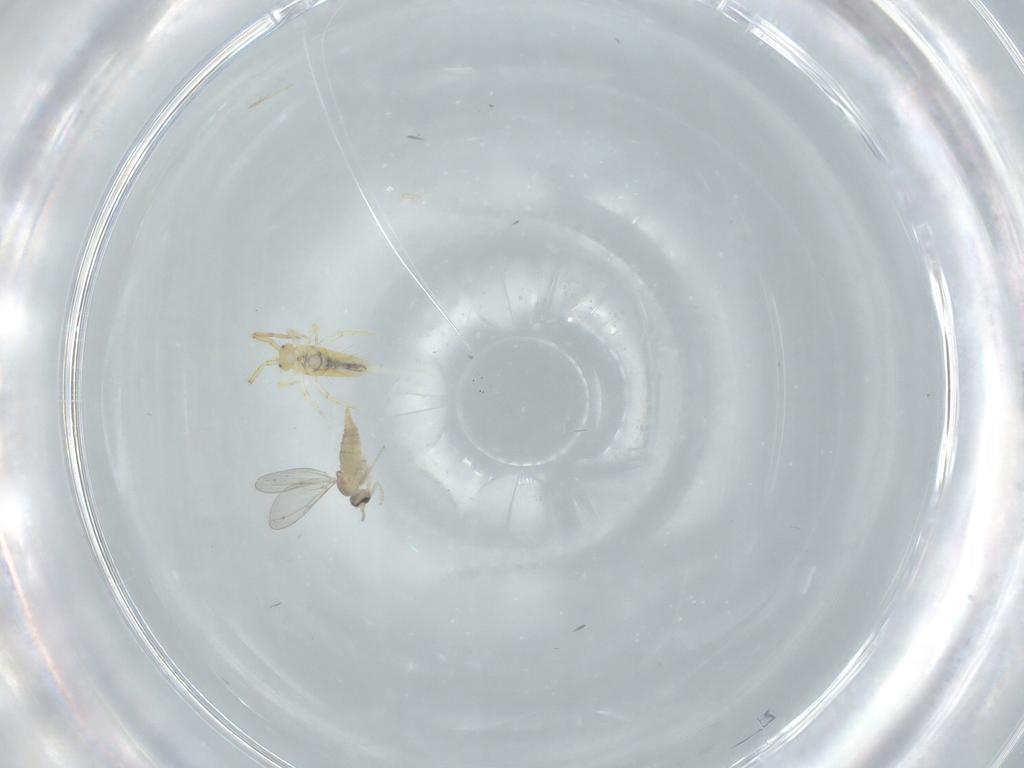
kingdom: Animalia
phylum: Arthropoda
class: Insecta
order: Diptera
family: Cecidomyiidae
